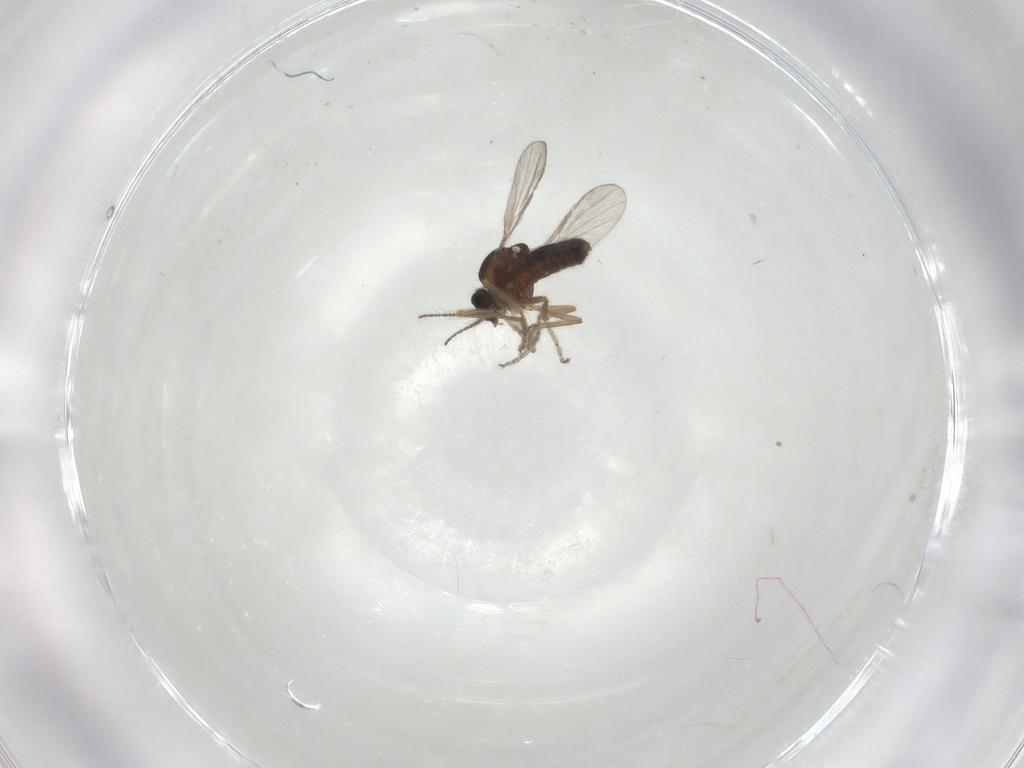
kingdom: Animalia
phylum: Arthropoda
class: Insecta
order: Diptera
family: Ceratopogonidae
